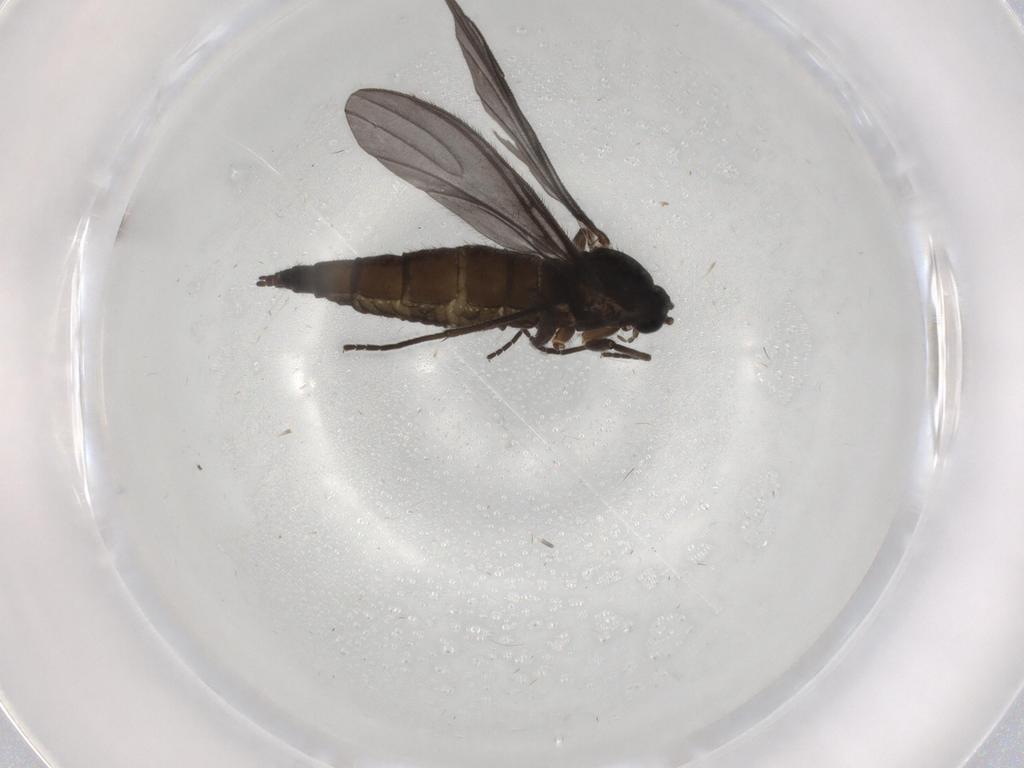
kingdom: Animalia
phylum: Arthropoda
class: Insecta
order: Diptera
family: Sciaridae
